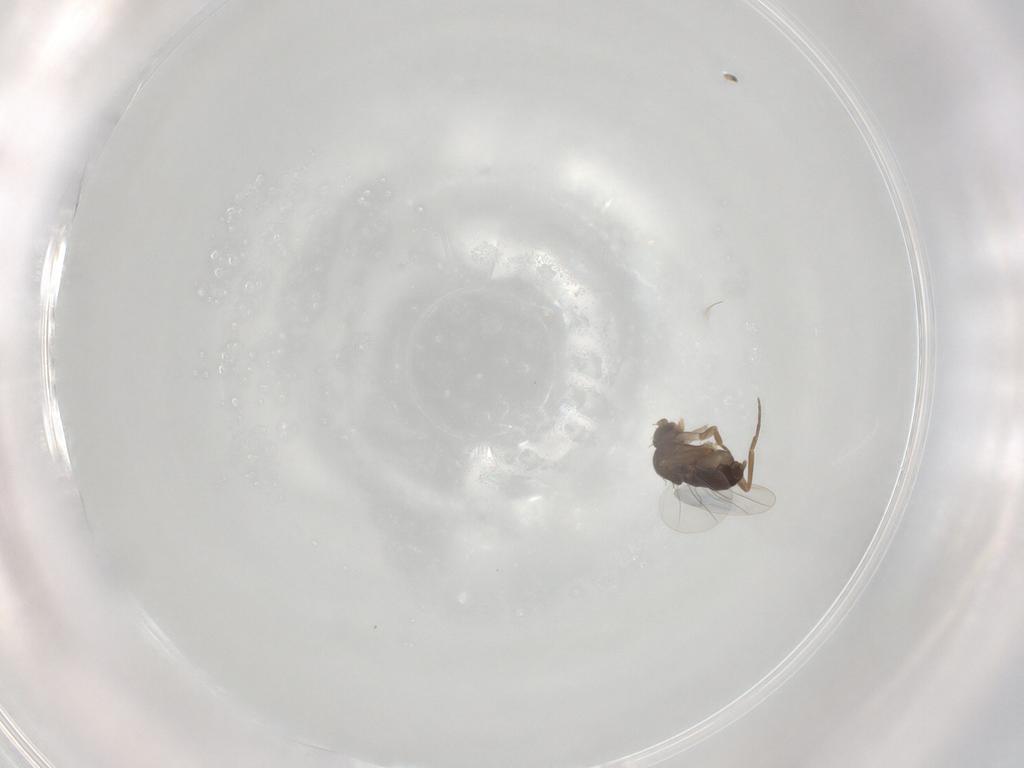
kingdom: Animalia
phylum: Arthropoda
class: Insecta
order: Diptera
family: Phoridae
